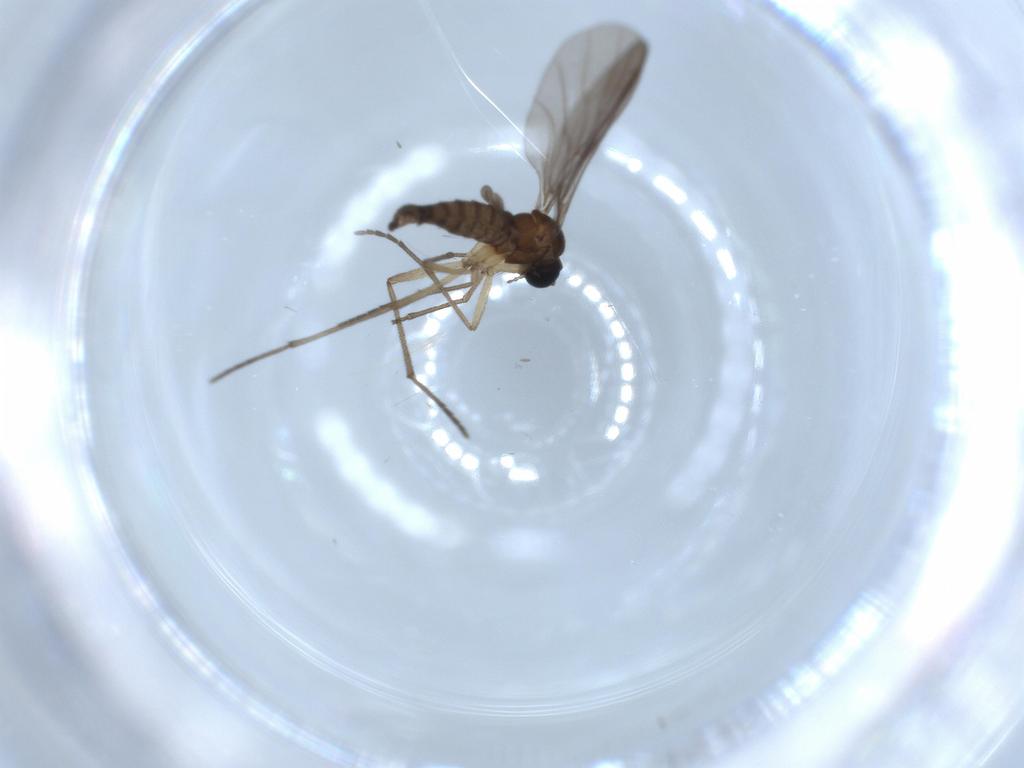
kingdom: Animalia
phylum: Arthropoda
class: Insecta
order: Diptera
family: Sciaridae
